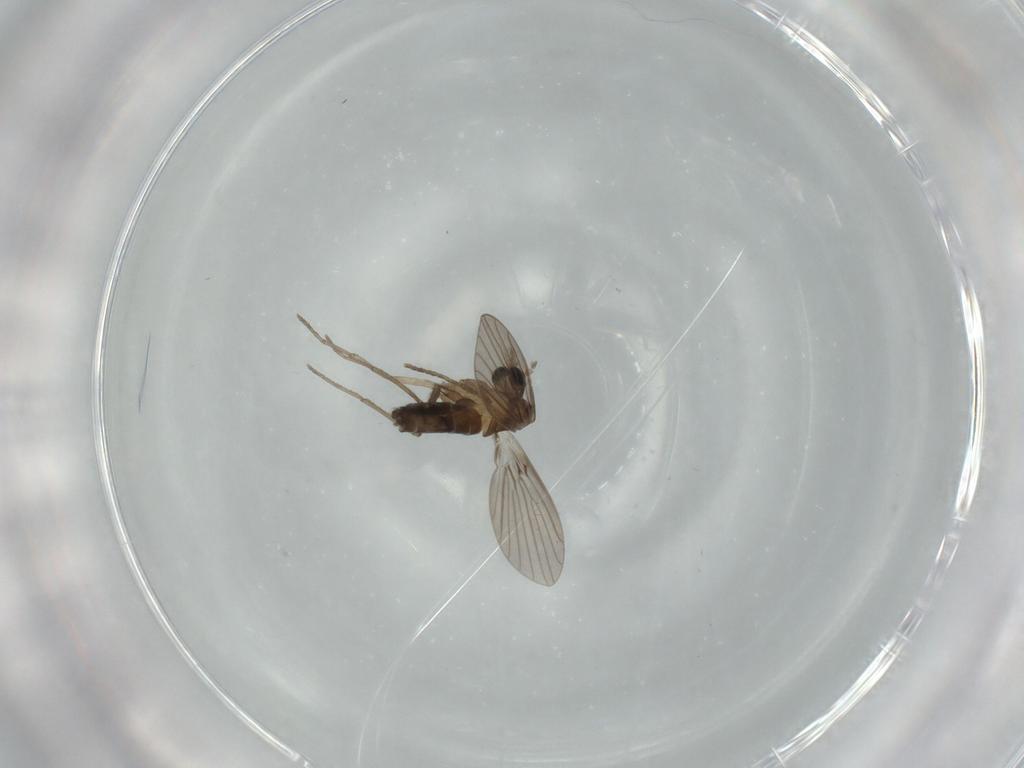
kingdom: Animalia
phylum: Arthropoda
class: Insecta
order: Diptera
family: Psychodidae
